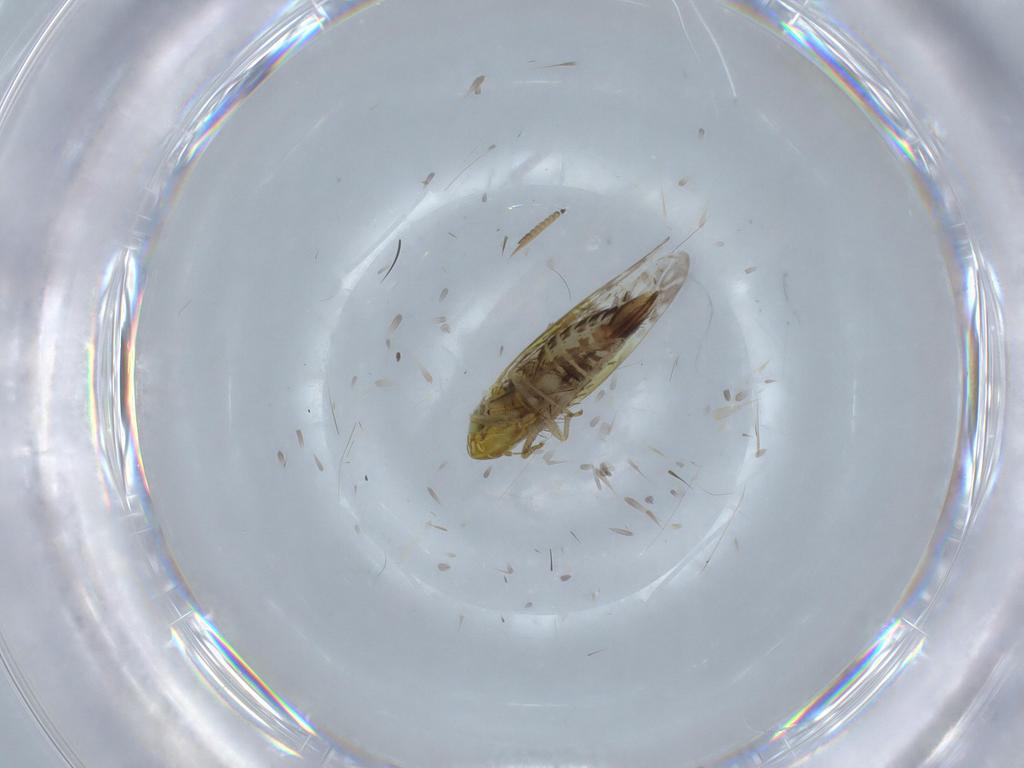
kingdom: Animalia
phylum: Arthropoda
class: Insecta
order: Hemiptera
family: Cicadellidae
